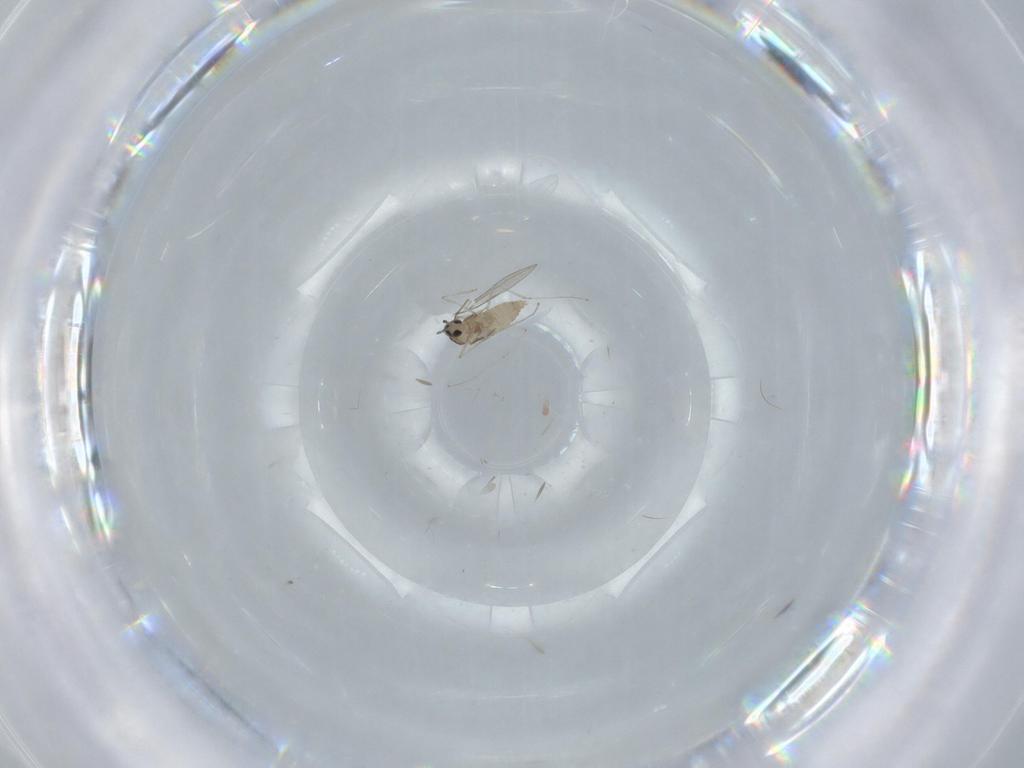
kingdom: Animalia
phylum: Arthropoda
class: Insecta
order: Diptera
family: Cecidomyiidae
